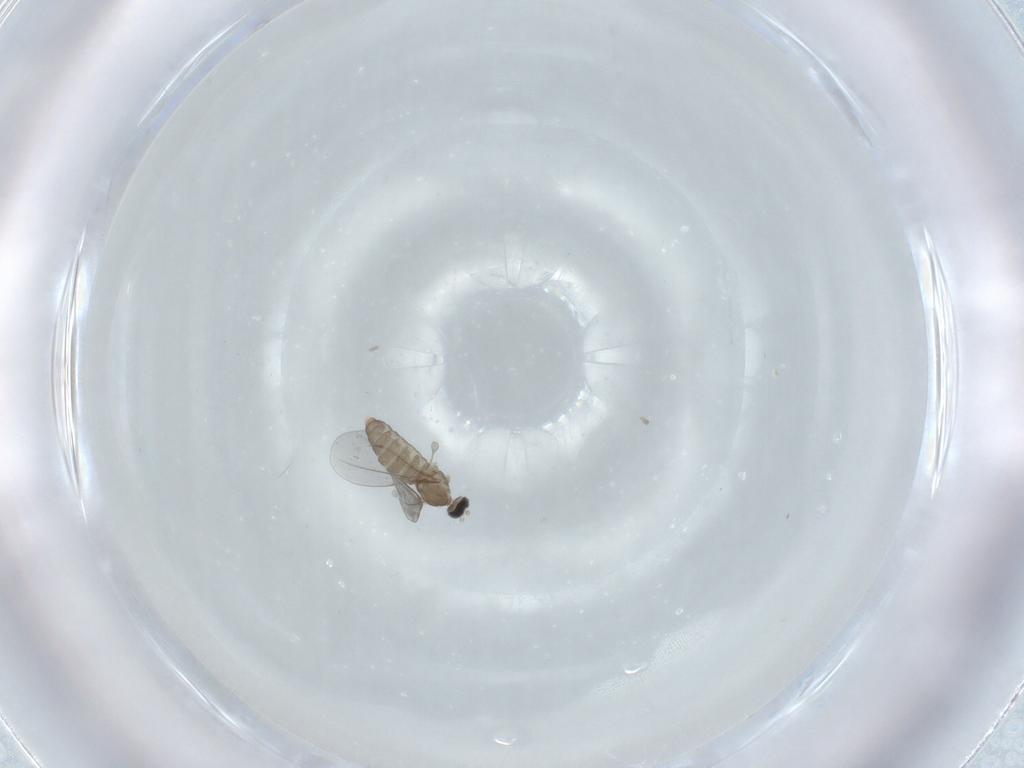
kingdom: Animalia
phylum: Arthropoda
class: Insecta
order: Diptera
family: Cecidomyiidae
